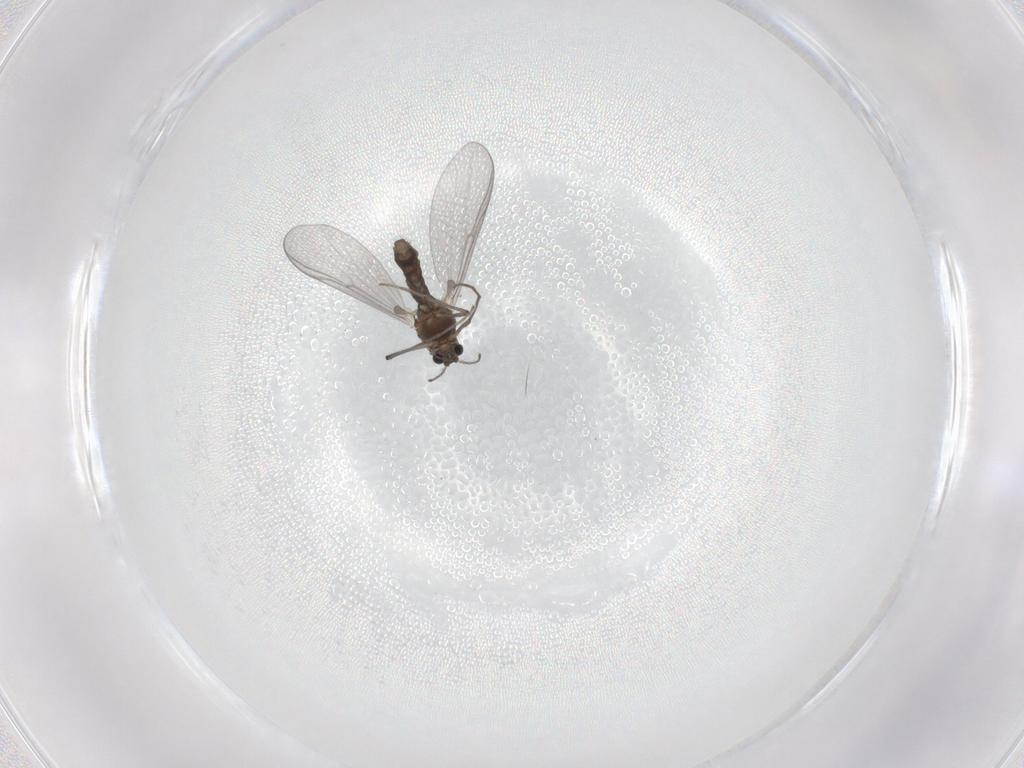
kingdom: Animalia
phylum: Arthropoda
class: Insecta
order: Diptera
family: Chironomidae
